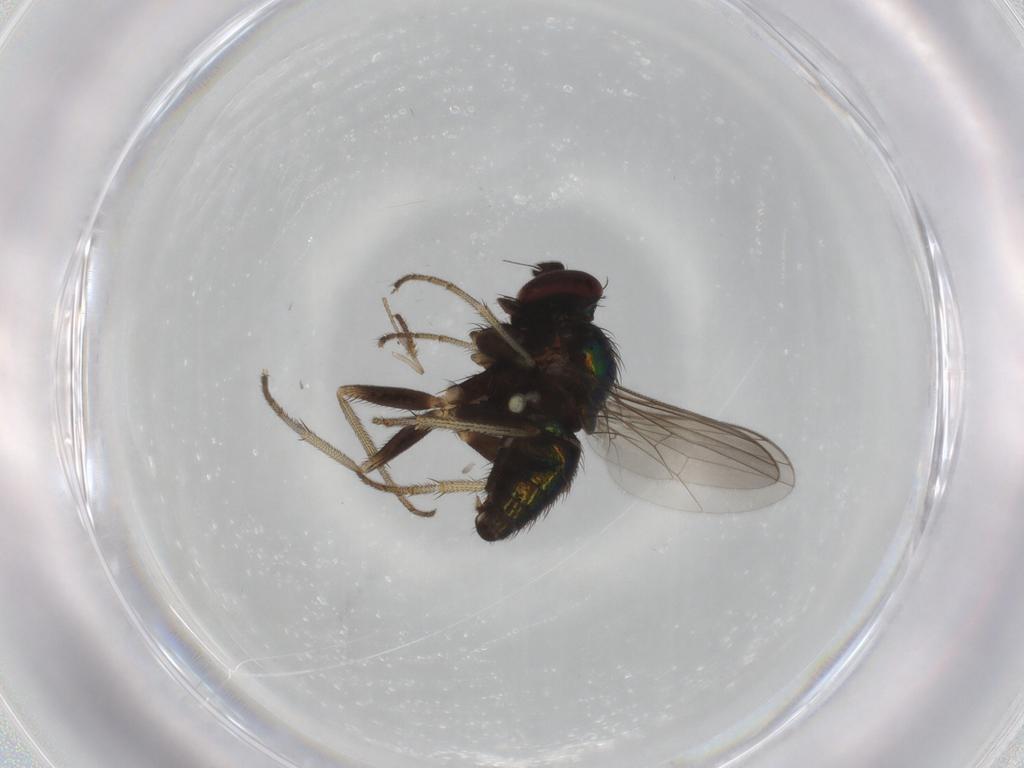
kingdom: Animalia
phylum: Arthropoda
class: Insecta
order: Diptera
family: Dolichopodidae
